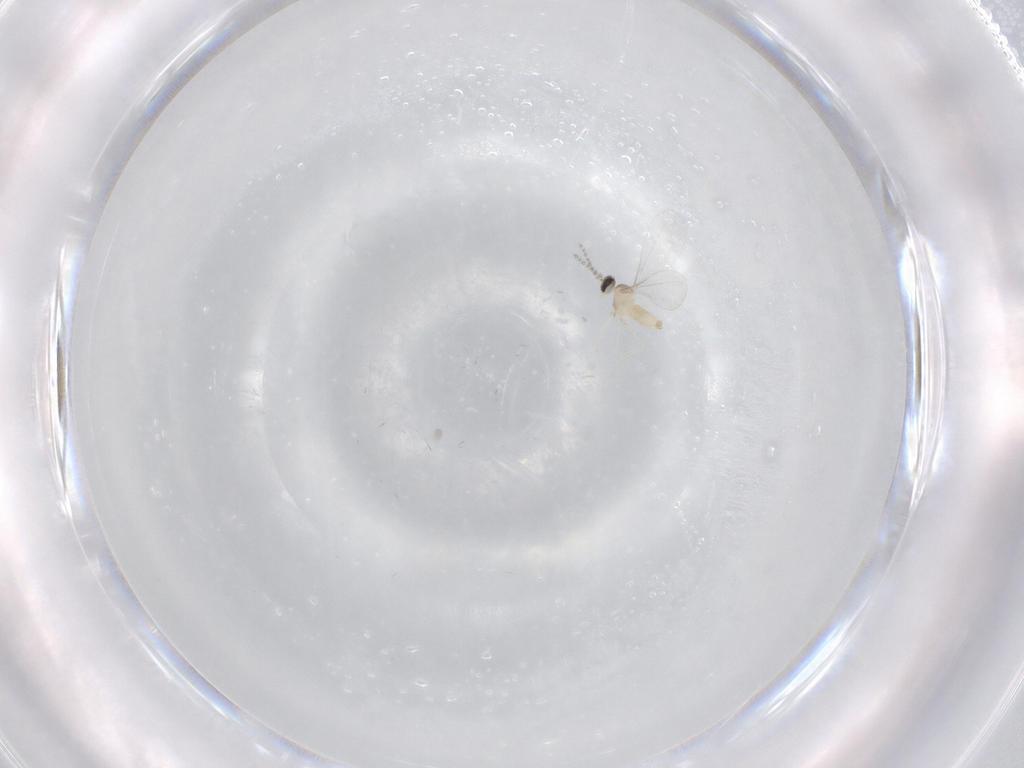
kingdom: Animalia
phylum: Arthropoda
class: Insecta
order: Diptera
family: Cecidomyiidae
